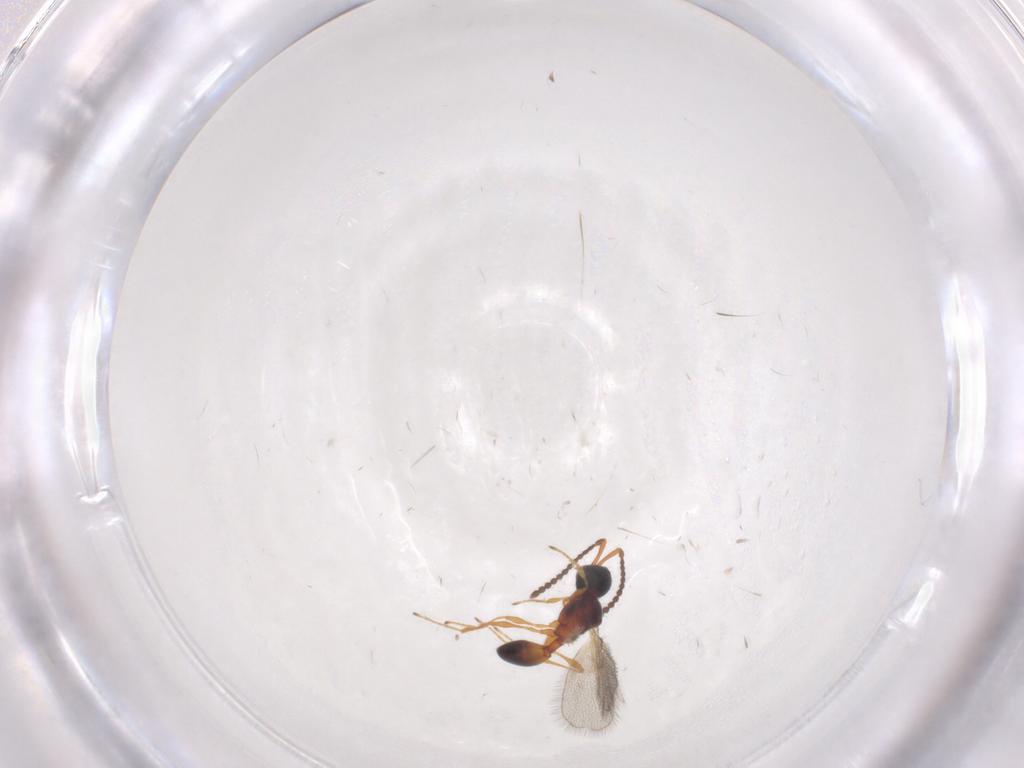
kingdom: Animalia
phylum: Arthropoda
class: Insecta
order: Hymenoptera
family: Diapriidae
